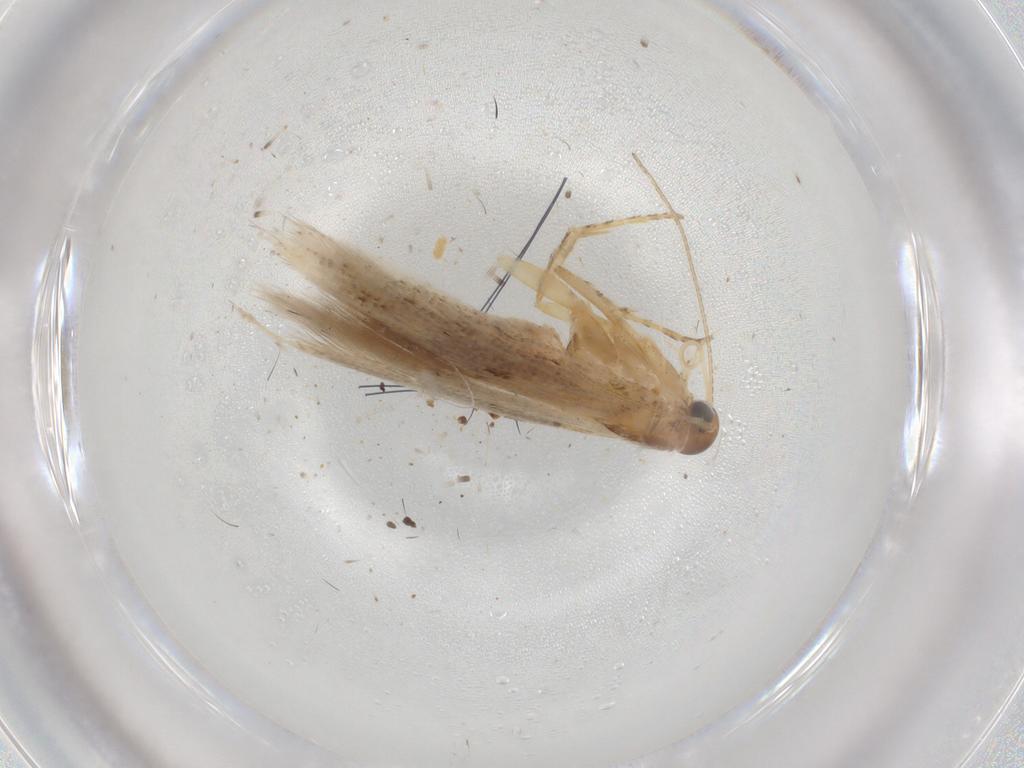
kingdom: Animalia
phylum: Arthropoda
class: Insecta
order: Lepidoptera
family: Gelechiidae
